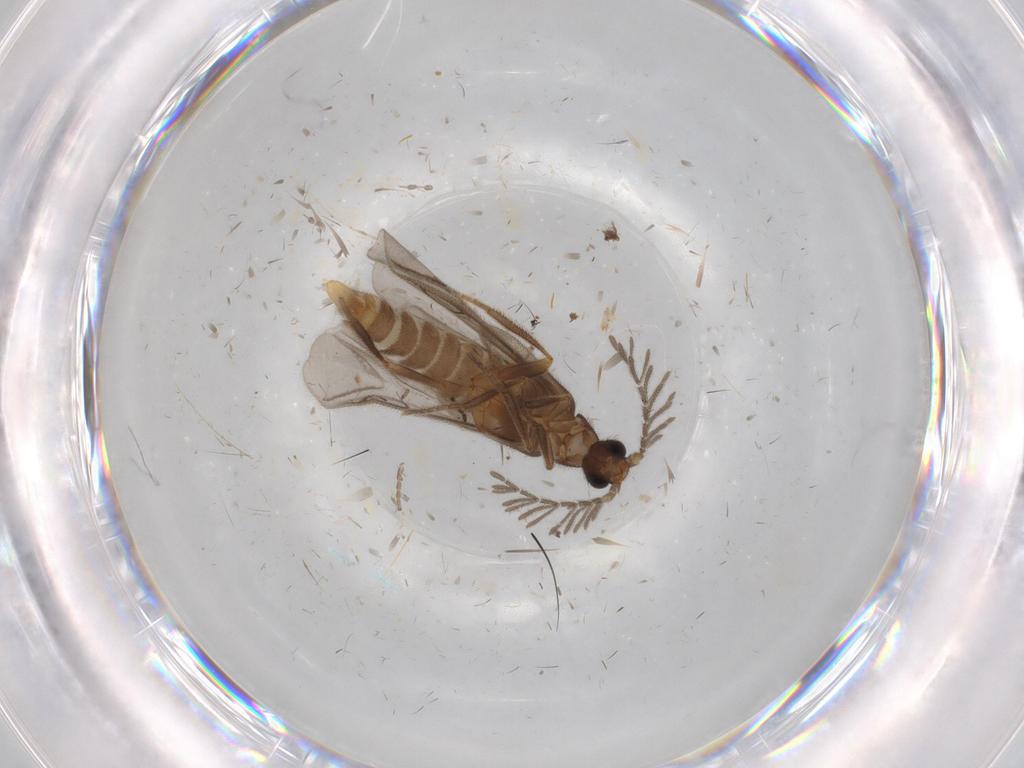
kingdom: Animalia
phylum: Arthropoda
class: Insecta
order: Coleoptera
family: Chrysomelidae
